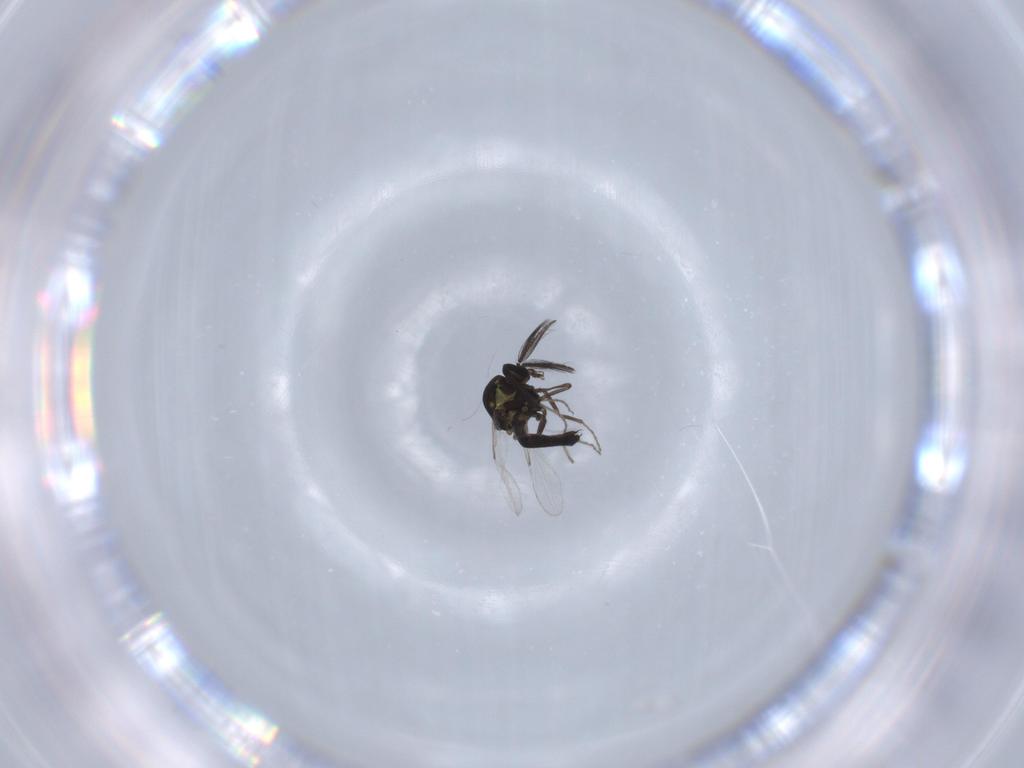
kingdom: Animalia
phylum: Arthropoda
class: Insecta
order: Diptera
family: Ceratopogonidae
